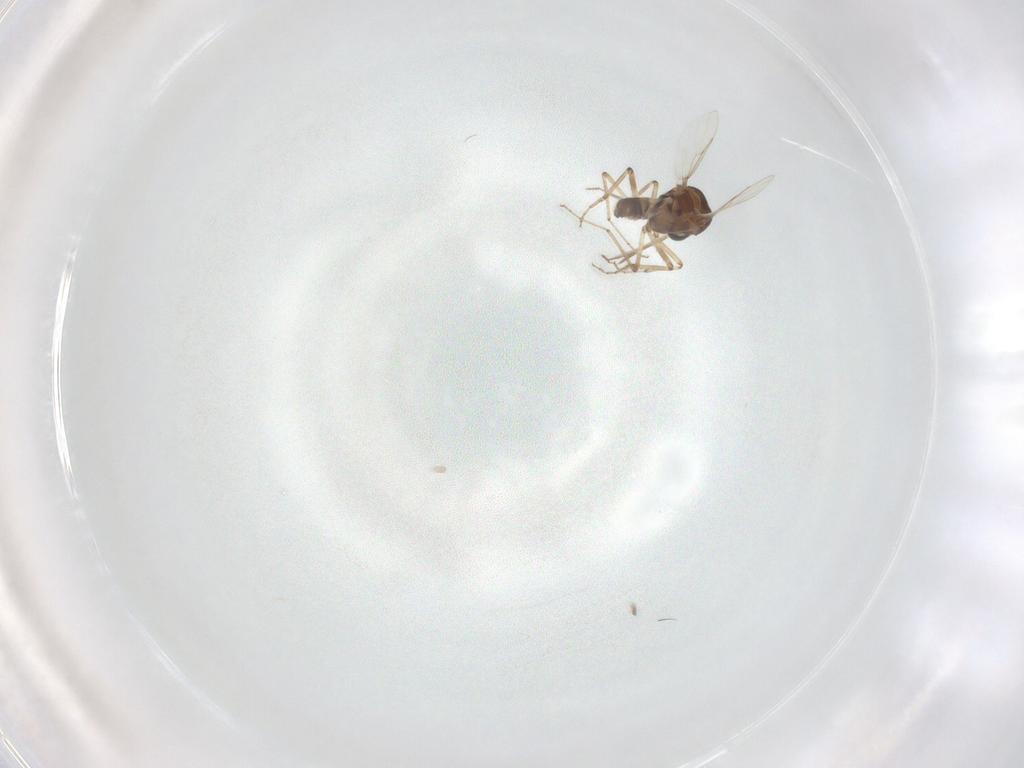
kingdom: Animalia
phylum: Arthropoda
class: Insecta
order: Diptera
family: Ceratopogonidae
